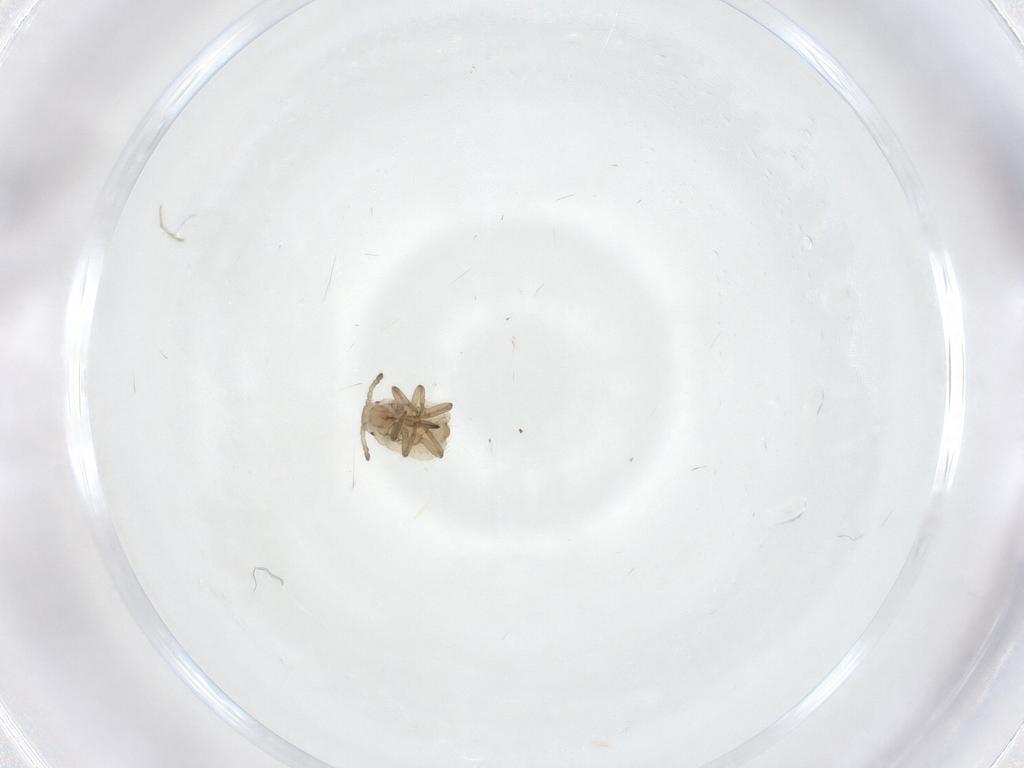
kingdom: Animalia
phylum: Arthropoda
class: Insecta
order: Hemiptera
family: Aphididae
